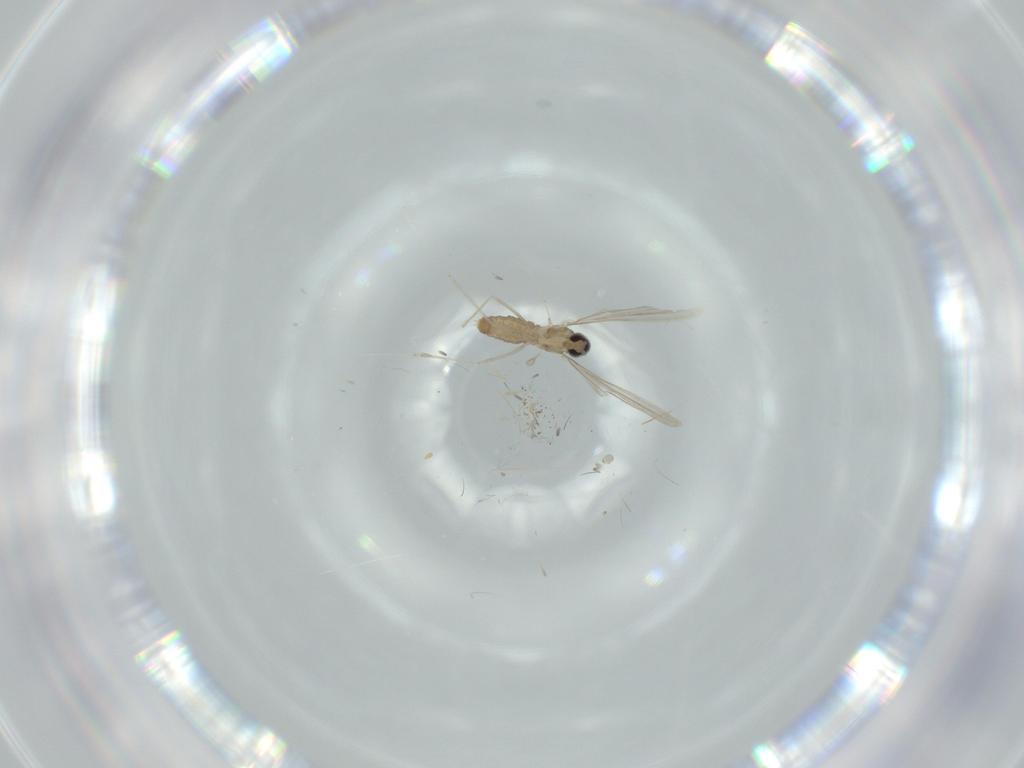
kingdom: Animalia
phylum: Arthropoda
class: Insecta
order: Diptera
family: Cecidomyiidae
